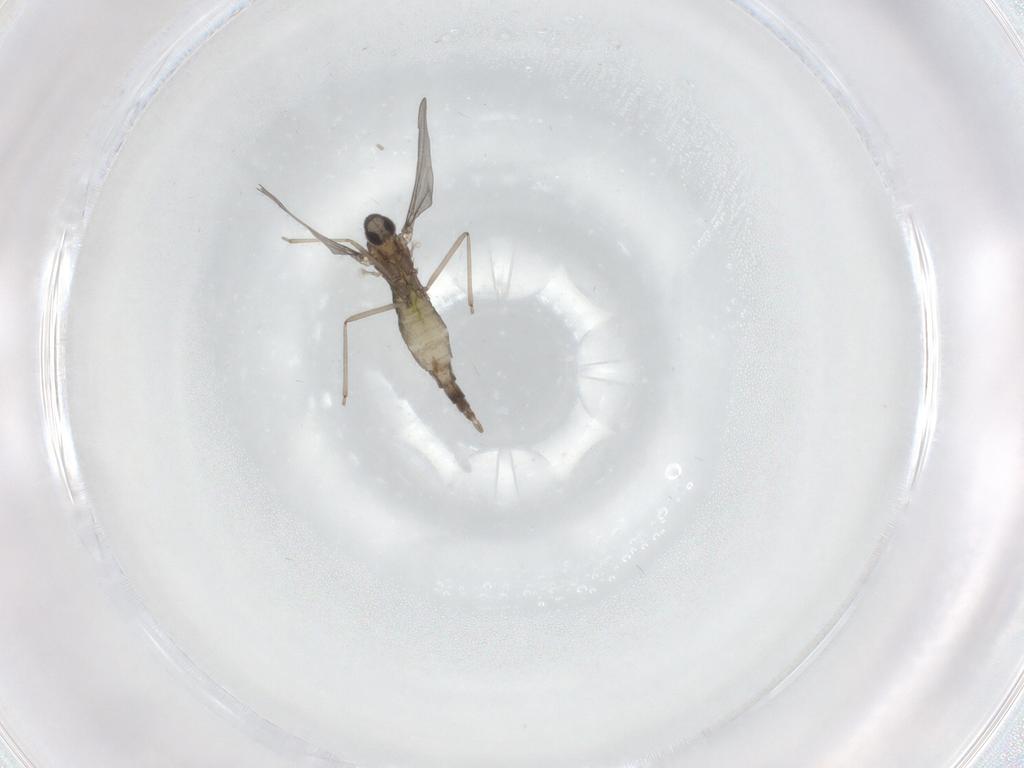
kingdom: Animalia
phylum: Arthropoda
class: Insecta
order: Diptera
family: Cecidomyiidae
